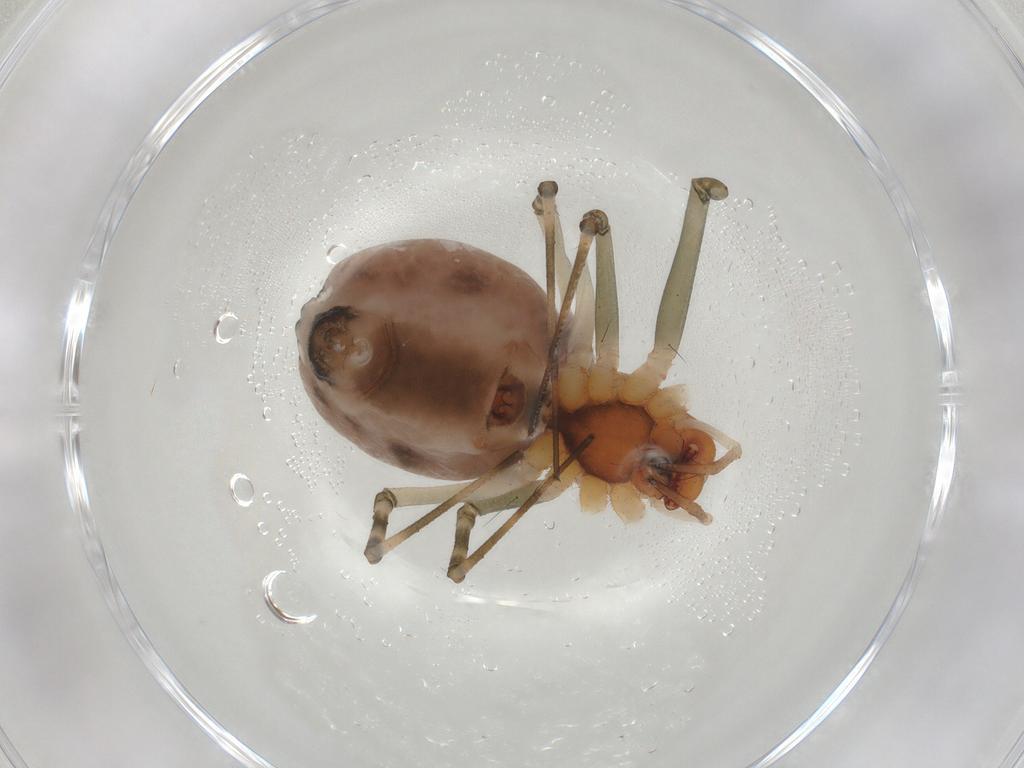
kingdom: Animalia
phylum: Arthropoda
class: Arachnida
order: Araneae
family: Linyphiidae
